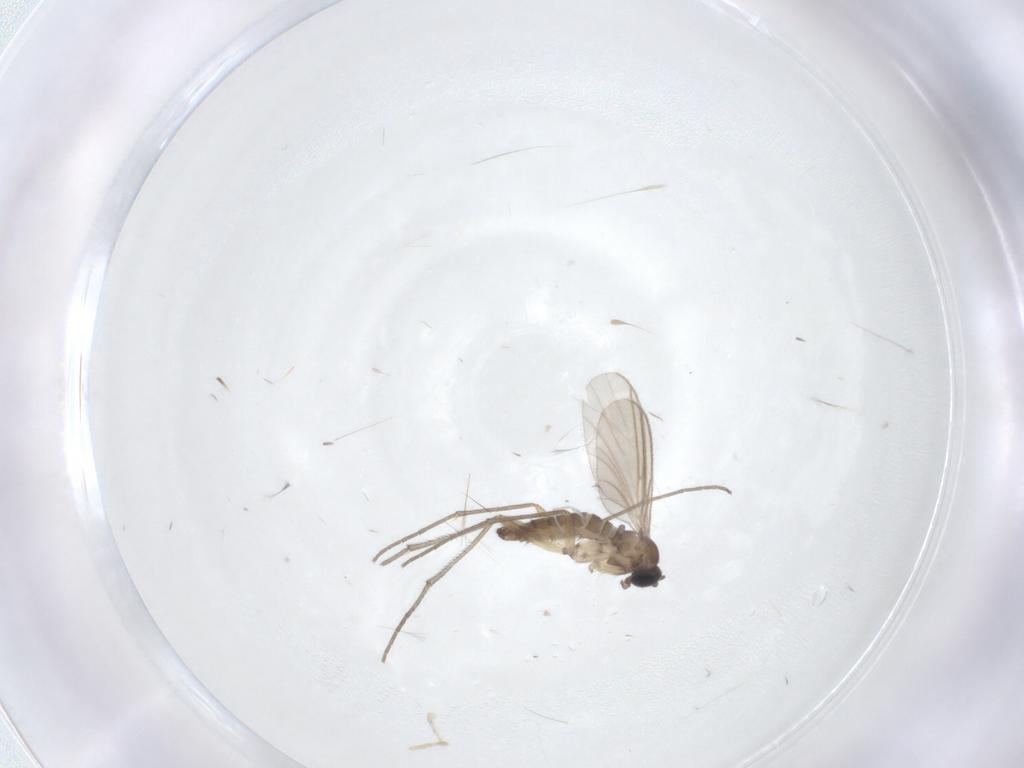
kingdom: Animalia
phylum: Arthropoda
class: Insecta
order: Diptera
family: Sciaridae
